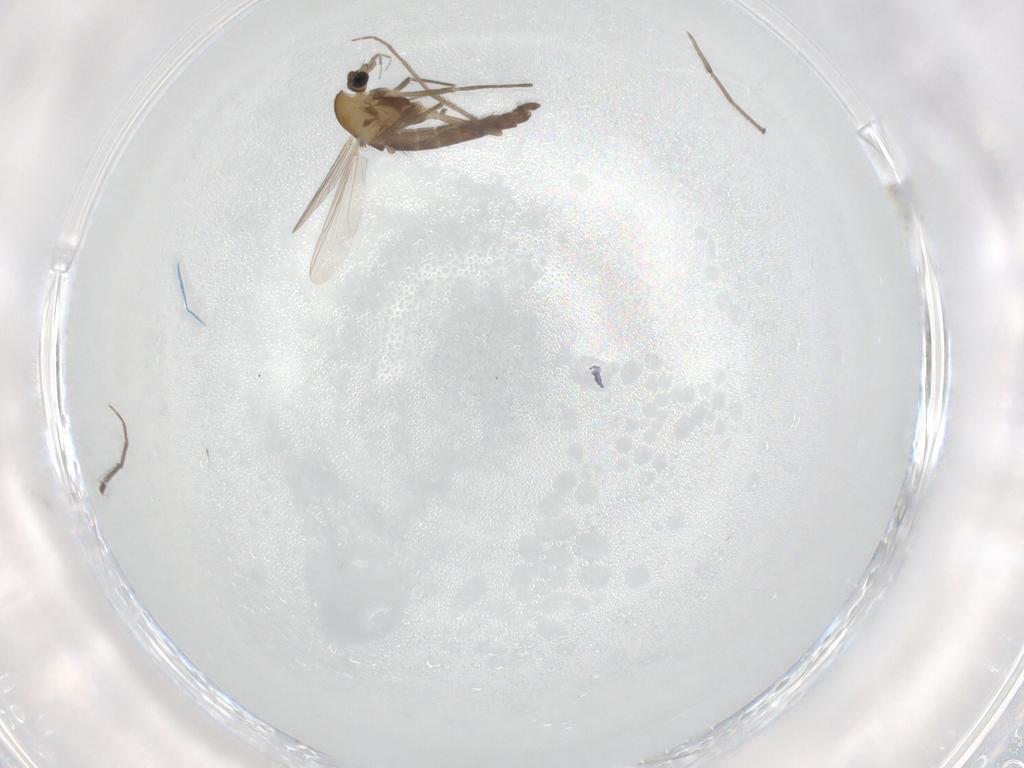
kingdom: Animalia
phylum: Arthropoda
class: Insecta
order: Diptera
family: Chironomidae
